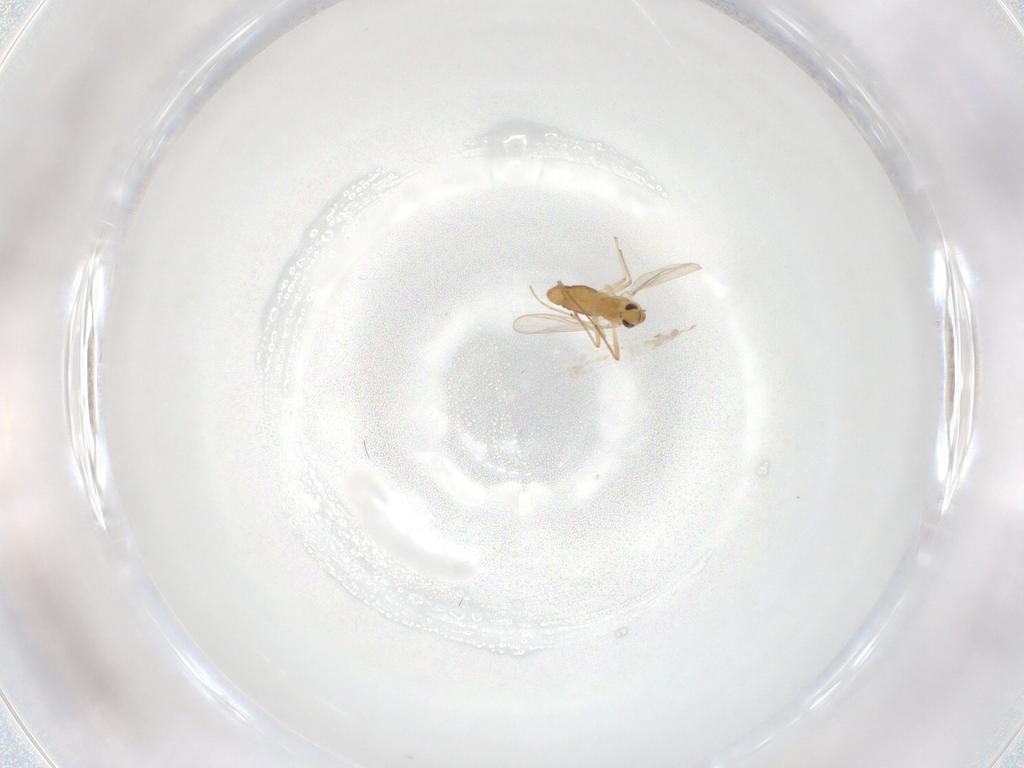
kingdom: Animalia
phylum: Arthropoda
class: Insecta
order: Diptera
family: Chironomidae
